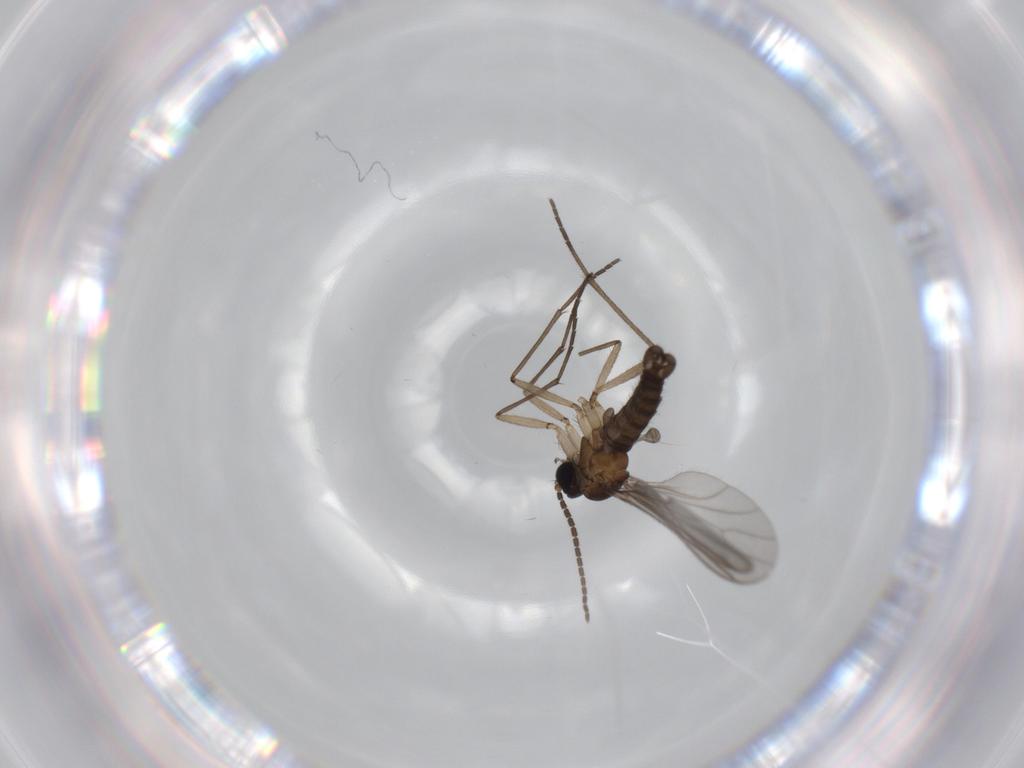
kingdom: Animalia
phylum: Arthropoda
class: Insecta
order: Diptera
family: Sciaridae
